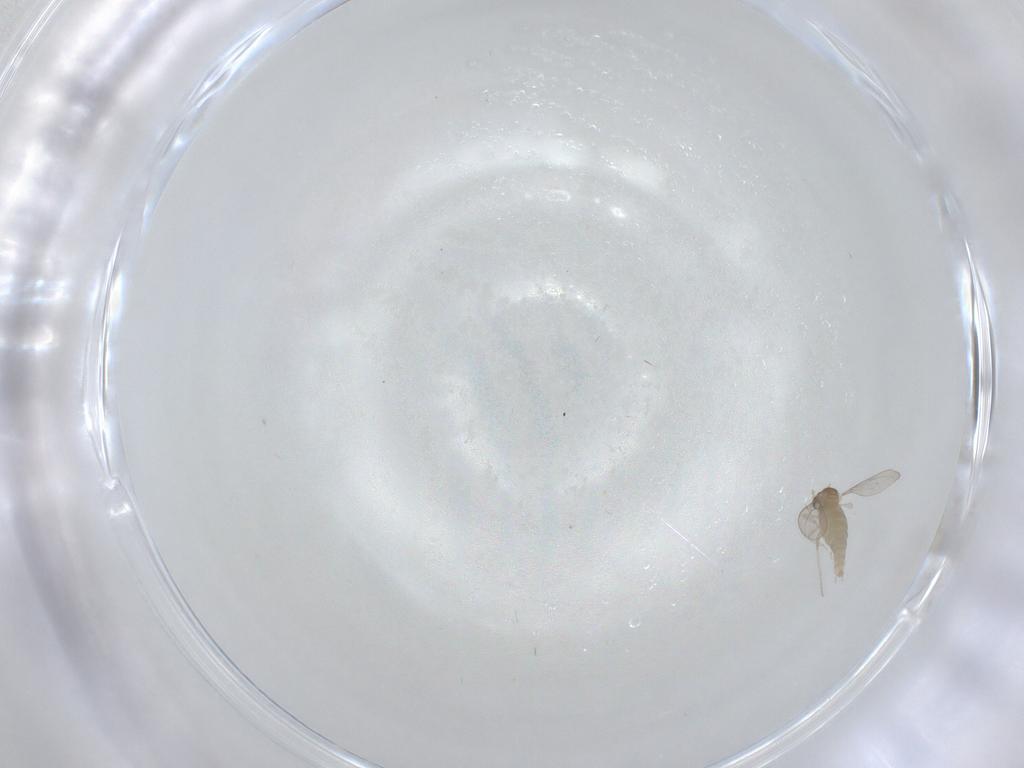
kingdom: Animalia
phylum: Arthropoda
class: Insecta
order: Diptera
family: Cecidomyiidae
